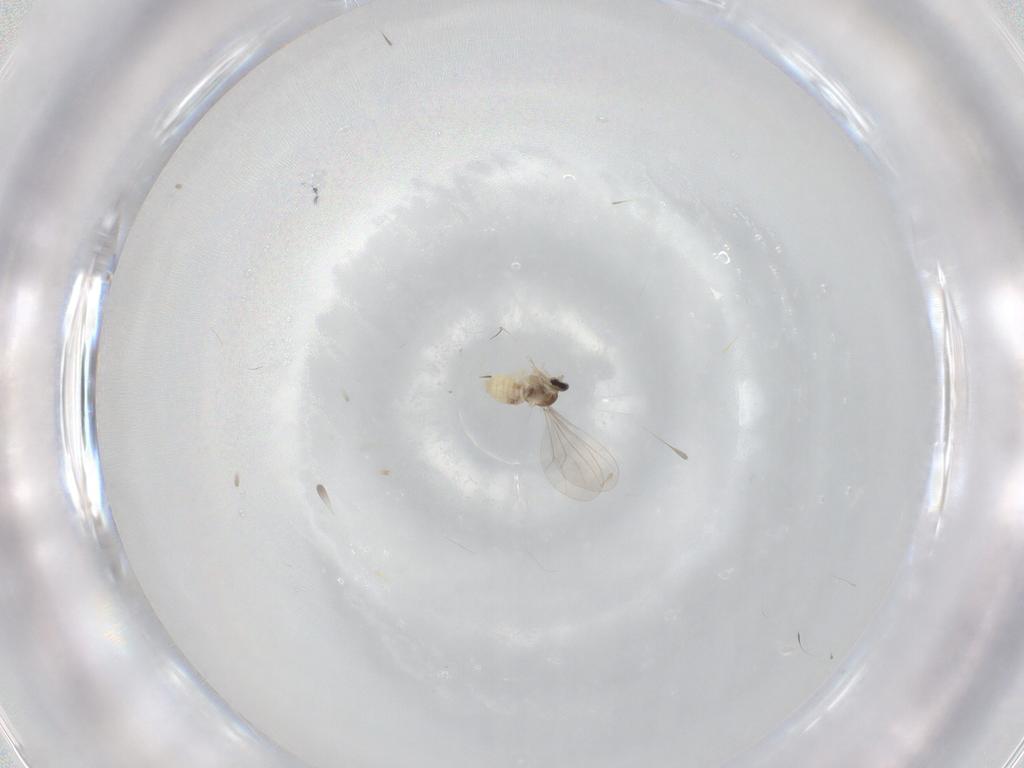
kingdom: Animalia
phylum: Arthropoda
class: Insecta
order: Diptera
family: Cecidomyiidae
